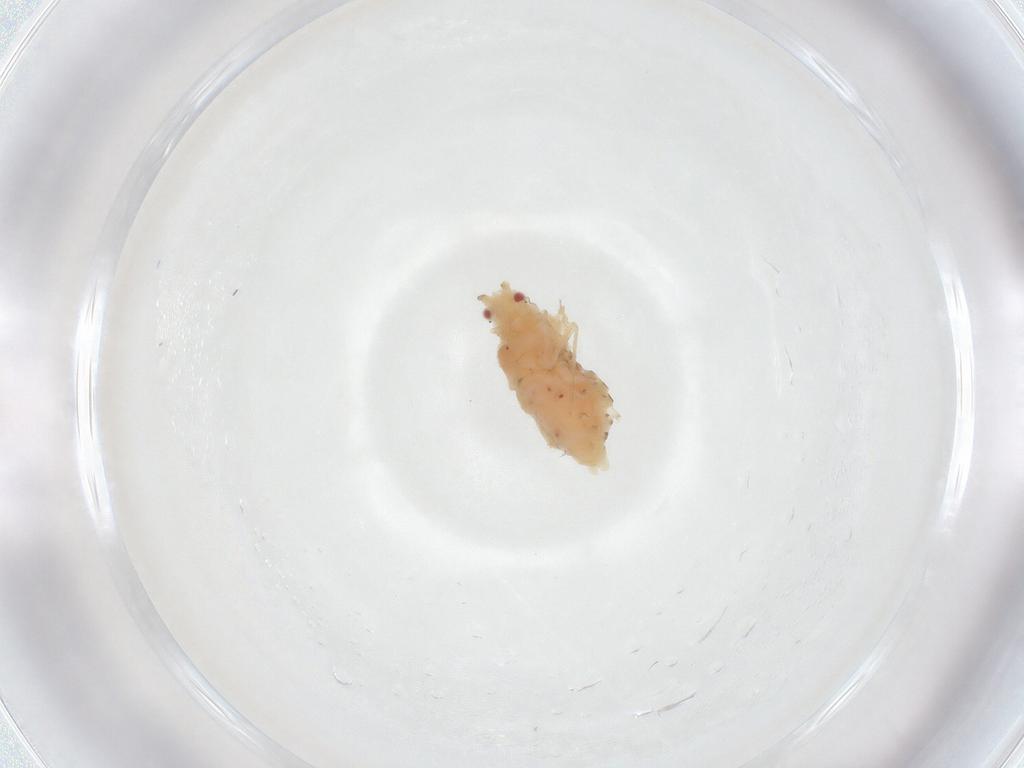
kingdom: Animalia
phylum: Arthropoda
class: Insecta
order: Hemiptera
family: Aphididae
